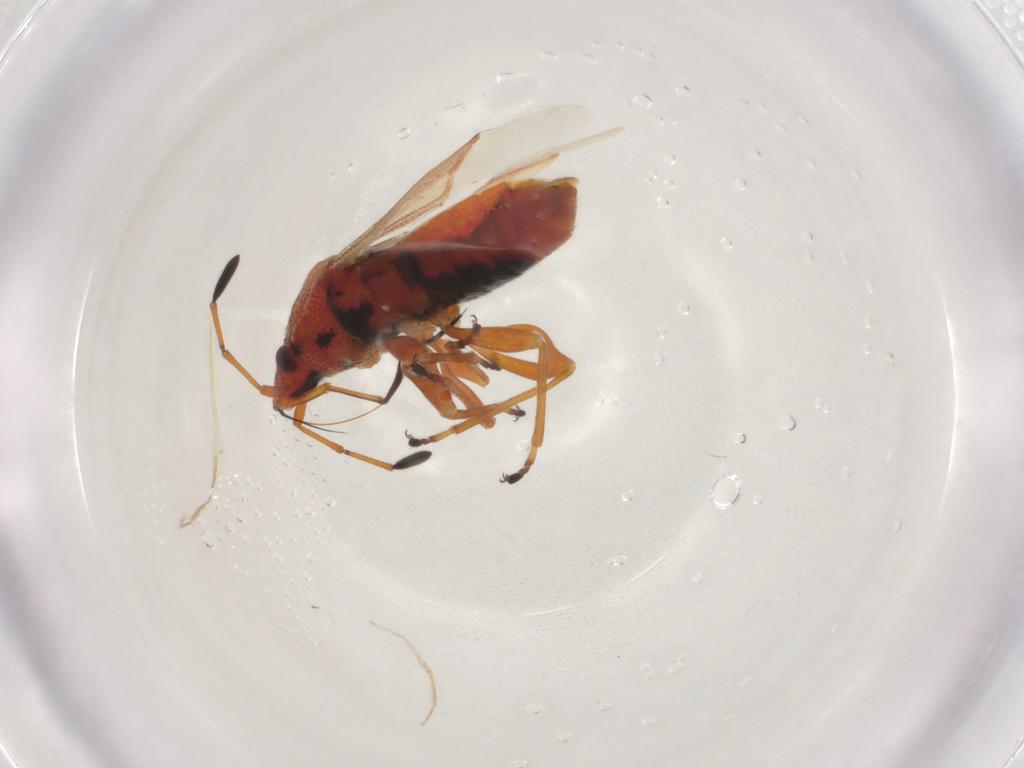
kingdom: Animalia
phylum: Arthropoda
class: Insecta
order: Hemiptera
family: Lygaeidae
